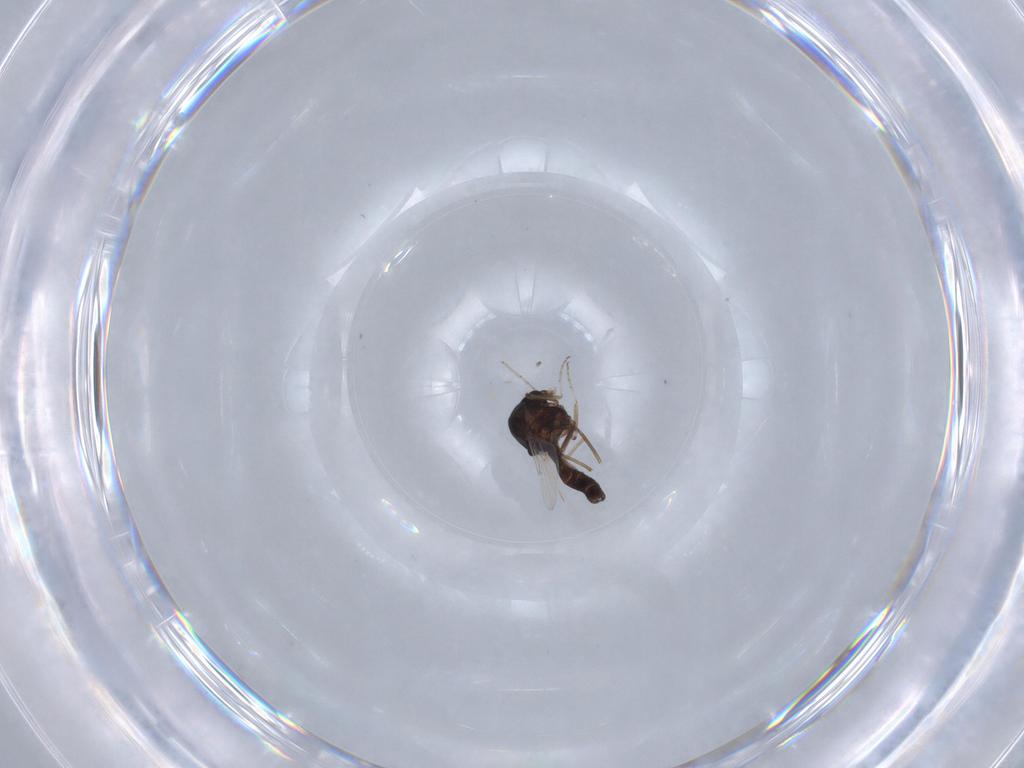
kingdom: Animalia
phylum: Arthropoda
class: Insecta
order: Diptera
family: Ceratopogonidae
